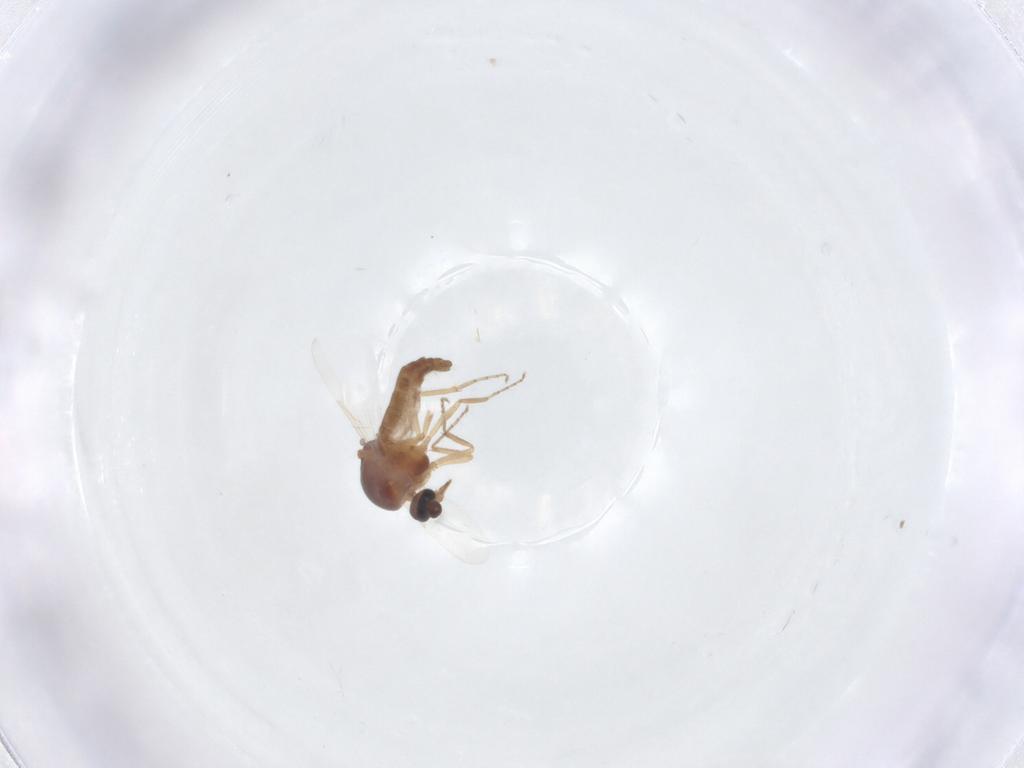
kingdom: Animalia
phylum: Arthropoda
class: Insecta
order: Diptera
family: Ceratopogonidae
